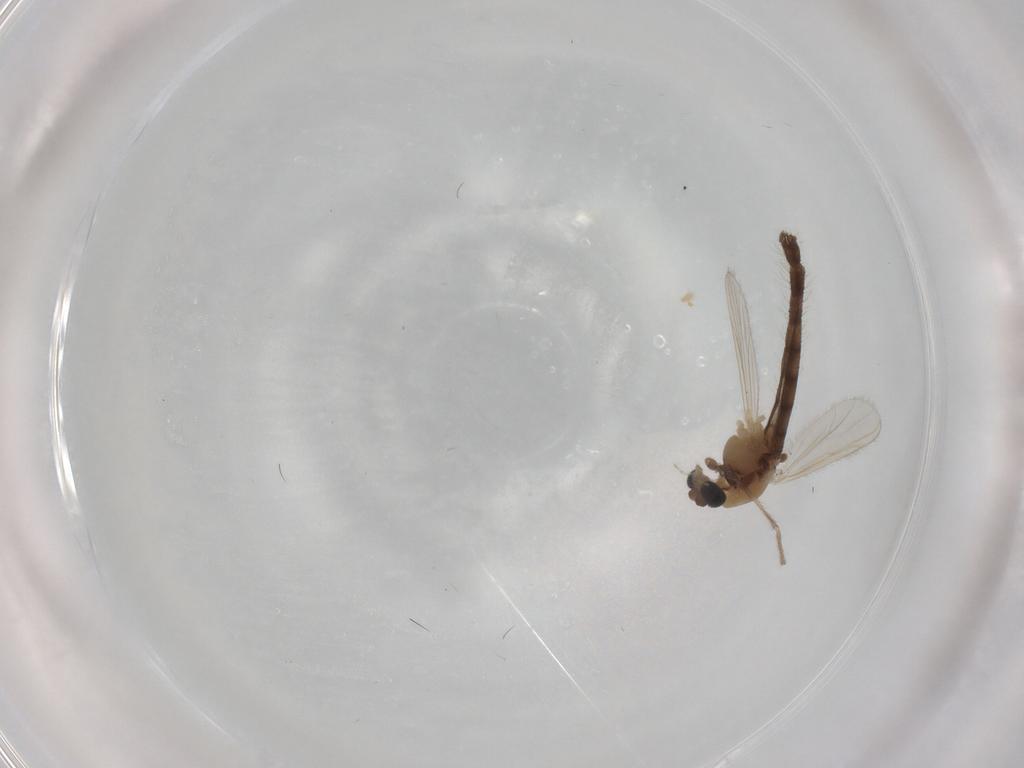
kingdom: Animalia
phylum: Arthropoda
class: Insecta
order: Diptera
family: Chironomidae
